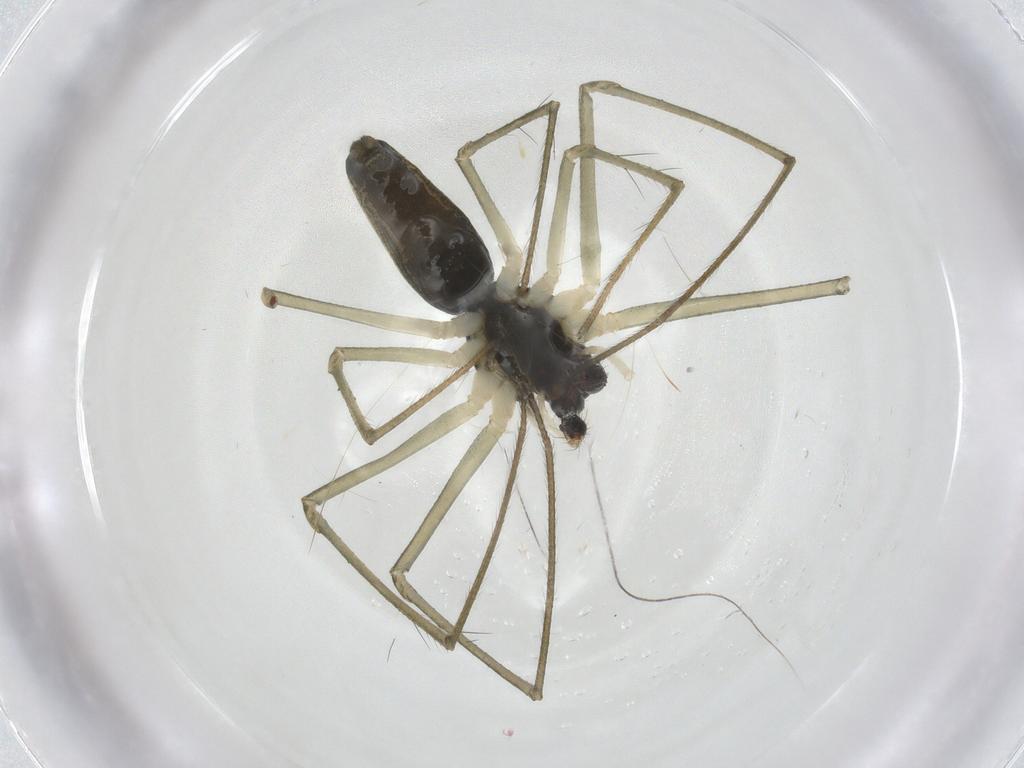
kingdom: Animalia
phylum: Arthropoda
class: Arachnida
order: Araneae
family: Linyphiidae
